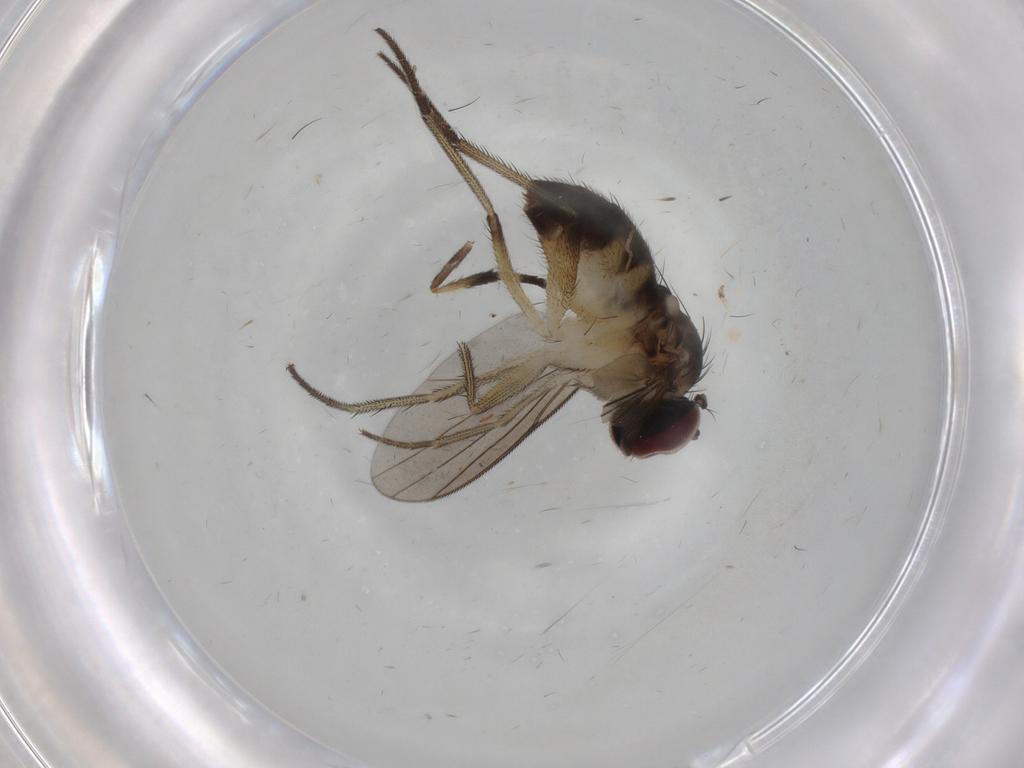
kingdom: Animalia
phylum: Arthropoda
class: Insecta
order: Diptera
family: Dolichopodidae
